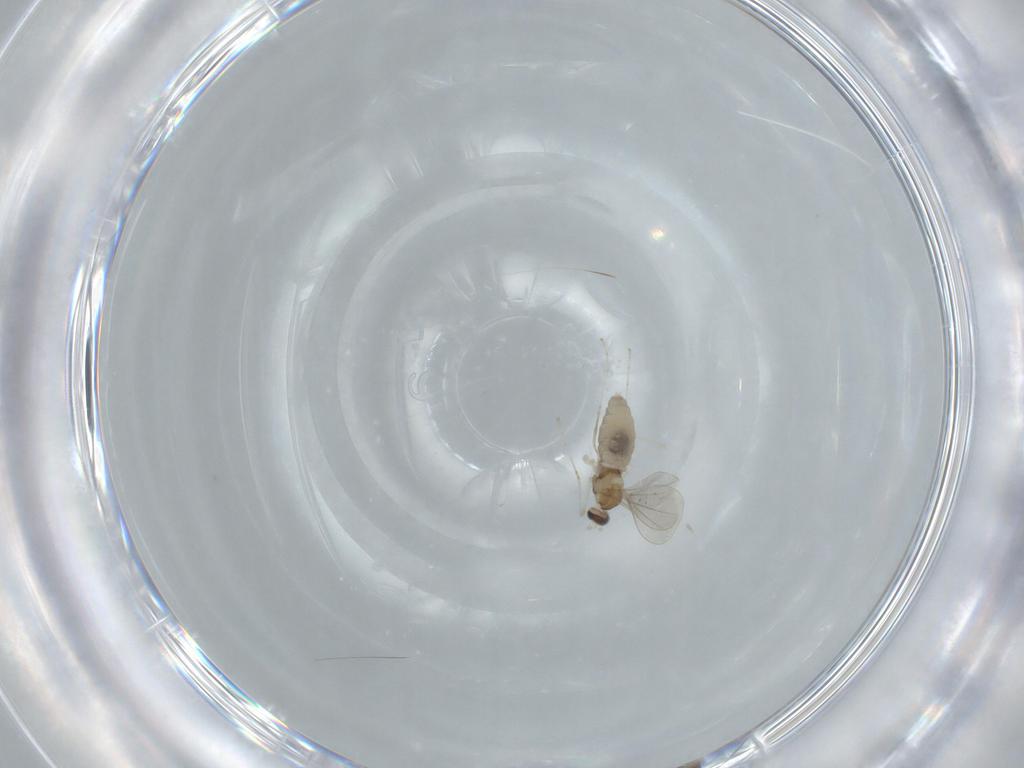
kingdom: Animalia
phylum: Arthropoda
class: Insecta
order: Diptera
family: Cecidomyiidae
